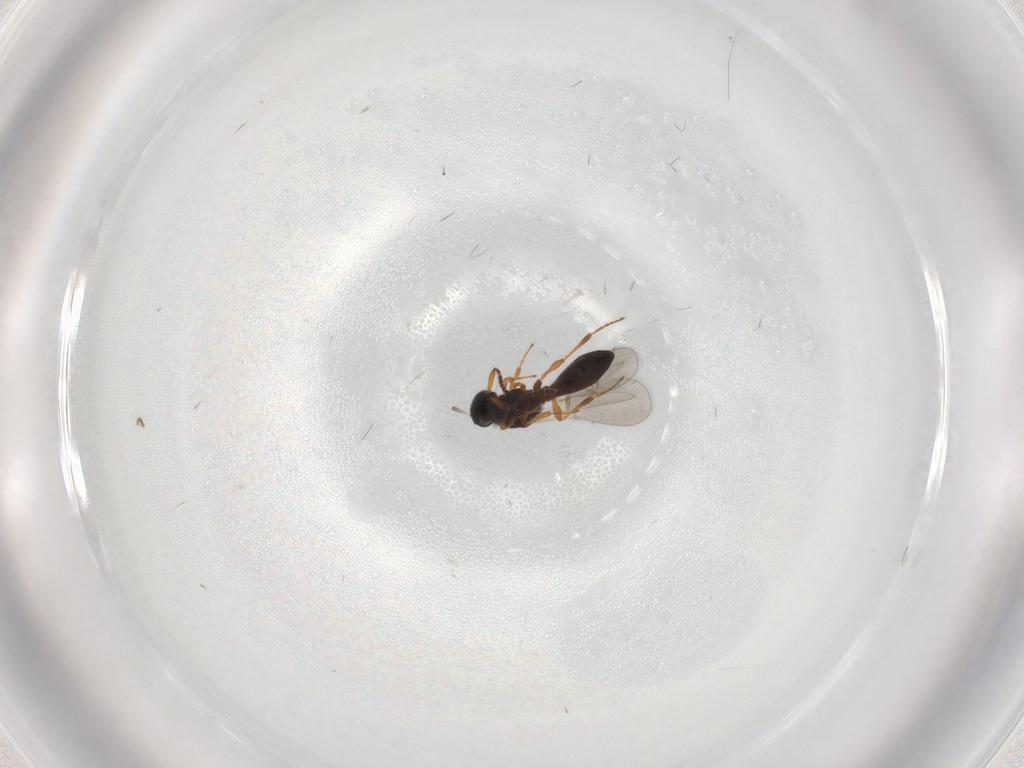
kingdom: Animalia
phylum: Arthropoda
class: Insecta
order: Hymenoptera
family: Platygastridae
